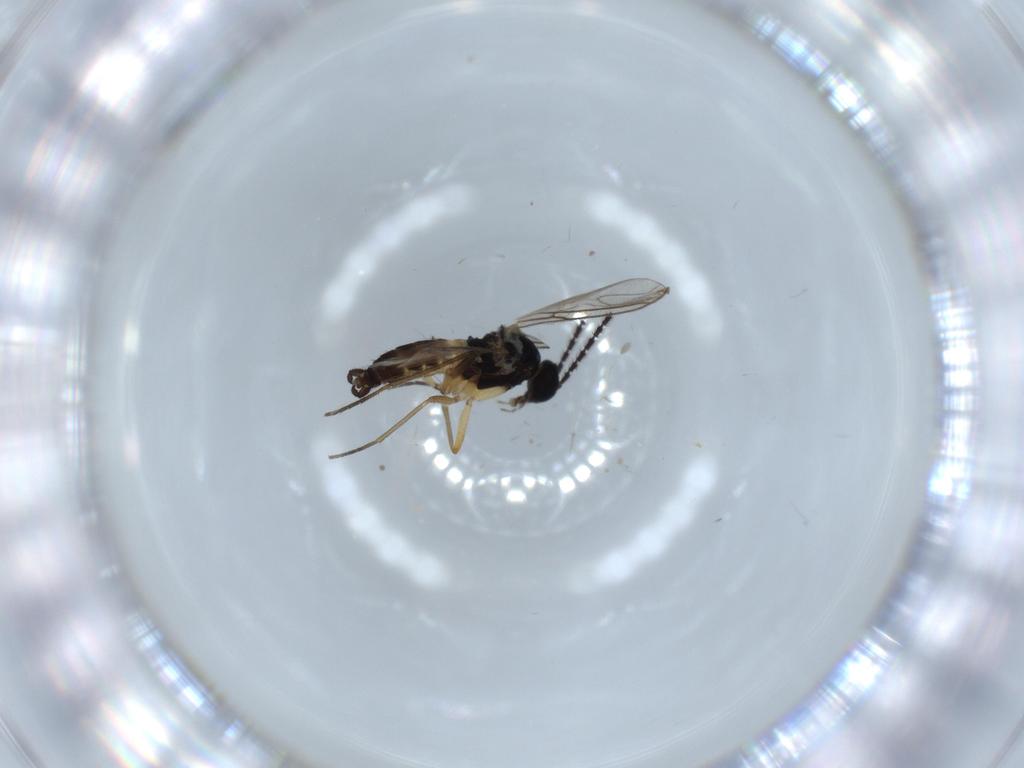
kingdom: Animalia
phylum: Arthropoda
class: Insecta
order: Diptera
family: Sciaridae
